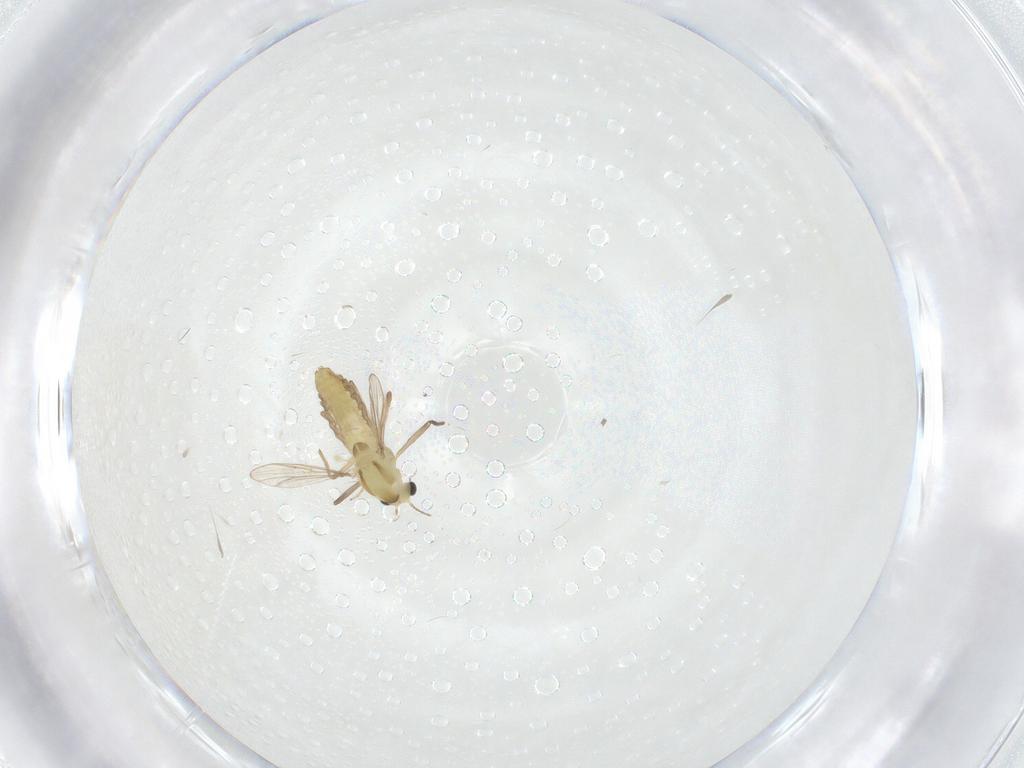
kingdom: Animalia
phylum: Arthropoda
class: Insecta
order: Diptera
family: Chironomidae
